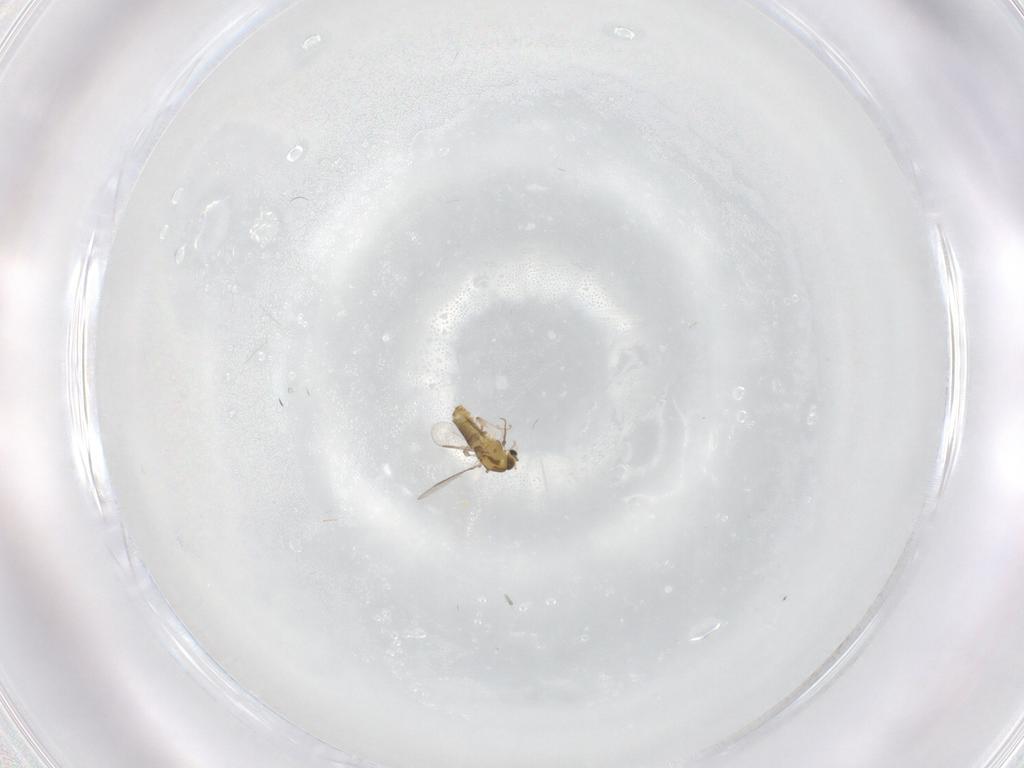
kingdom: Animalia
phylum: Arthropoda
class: Insecta
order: Diptera
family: Chironomidae
